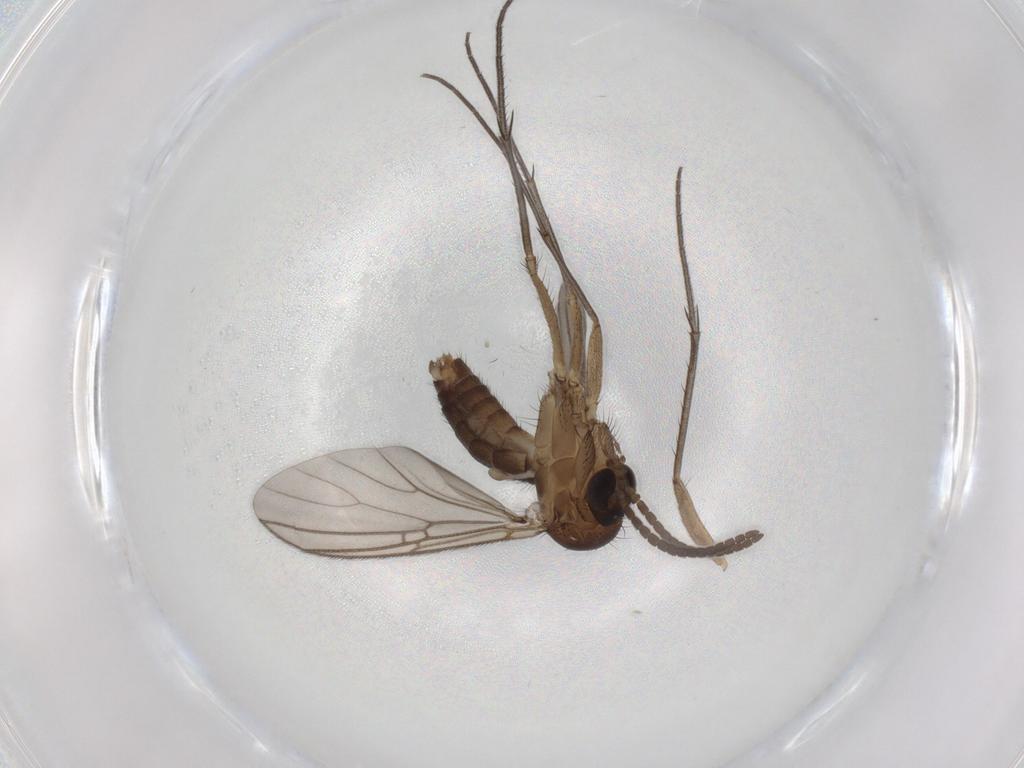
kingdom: Animalia
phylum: Arthropoda
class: Insecta
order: Diptera
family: Mycetophilidae
